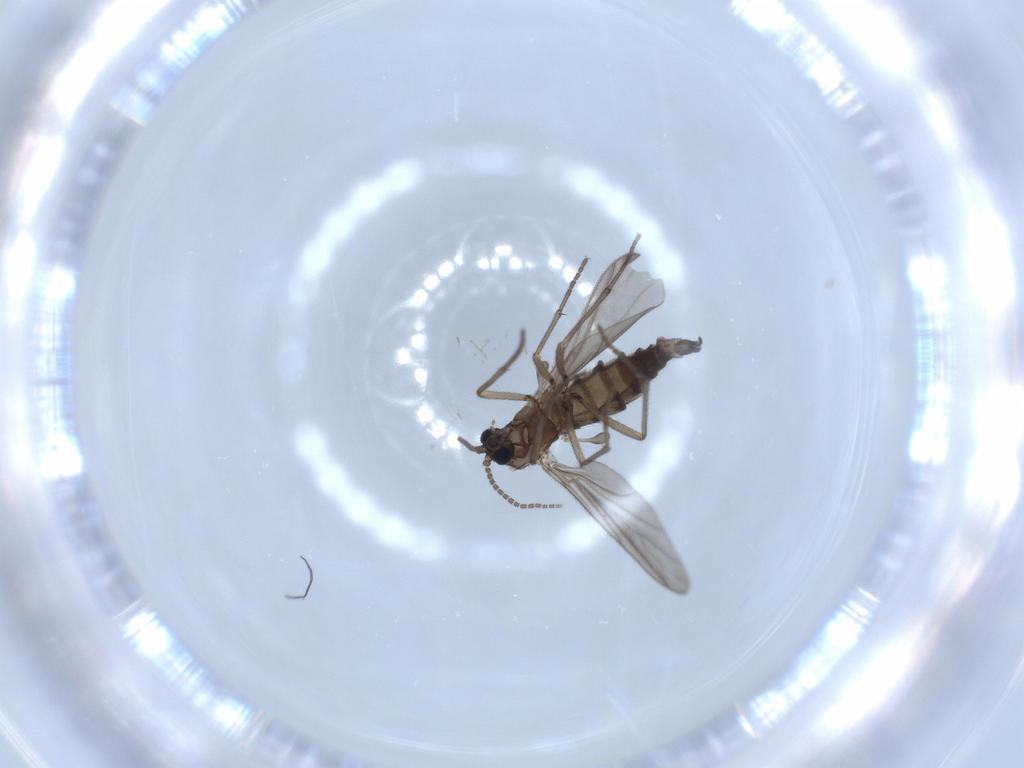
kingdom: Animalia
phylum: Arthropoda
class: Insecta
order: Diptera
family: Sciaridae
